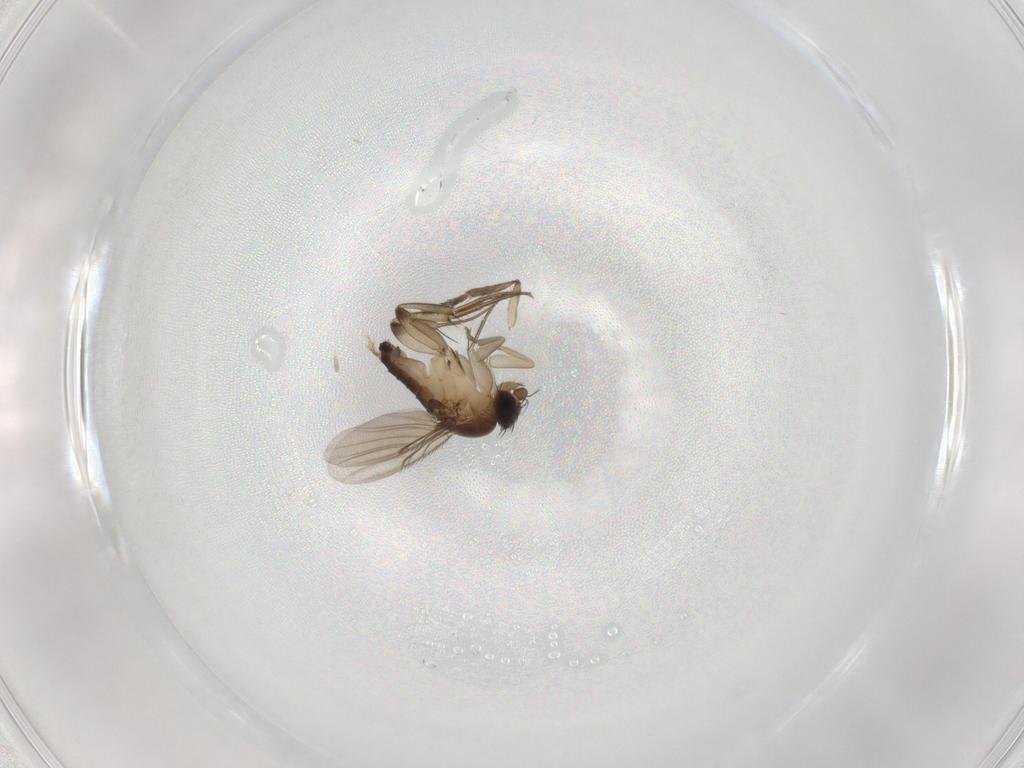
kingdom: Animalia
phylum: Arthropoda
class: Insecta
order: Diptera
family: Phoridae
